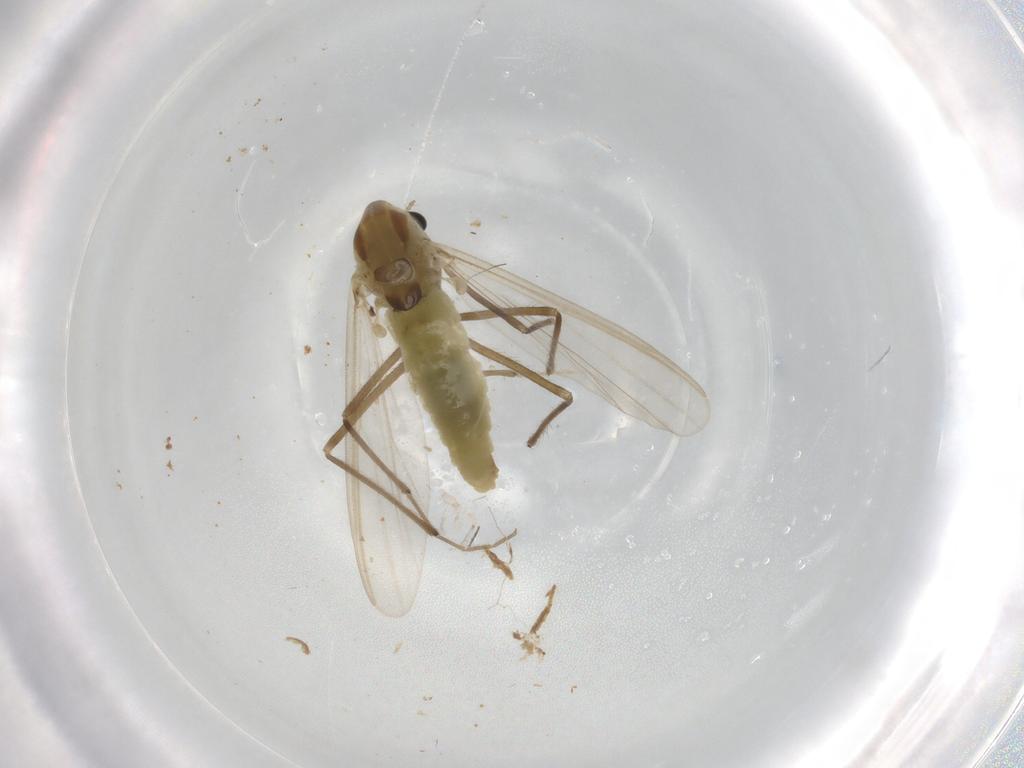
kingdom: Animalia
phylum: Arthropoda
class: Insecta
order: Diptera
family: Chironomidae
